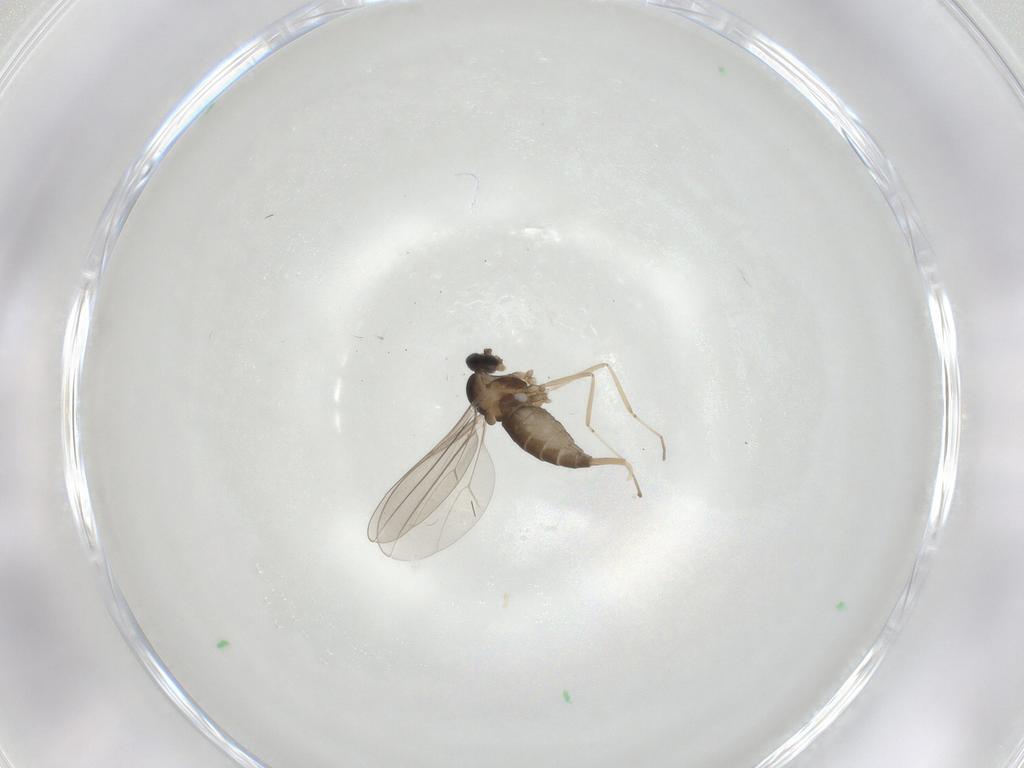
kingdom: Animalia
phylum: Arthropoda
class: Insecta
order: Diptera
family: Cecidomyiidae
